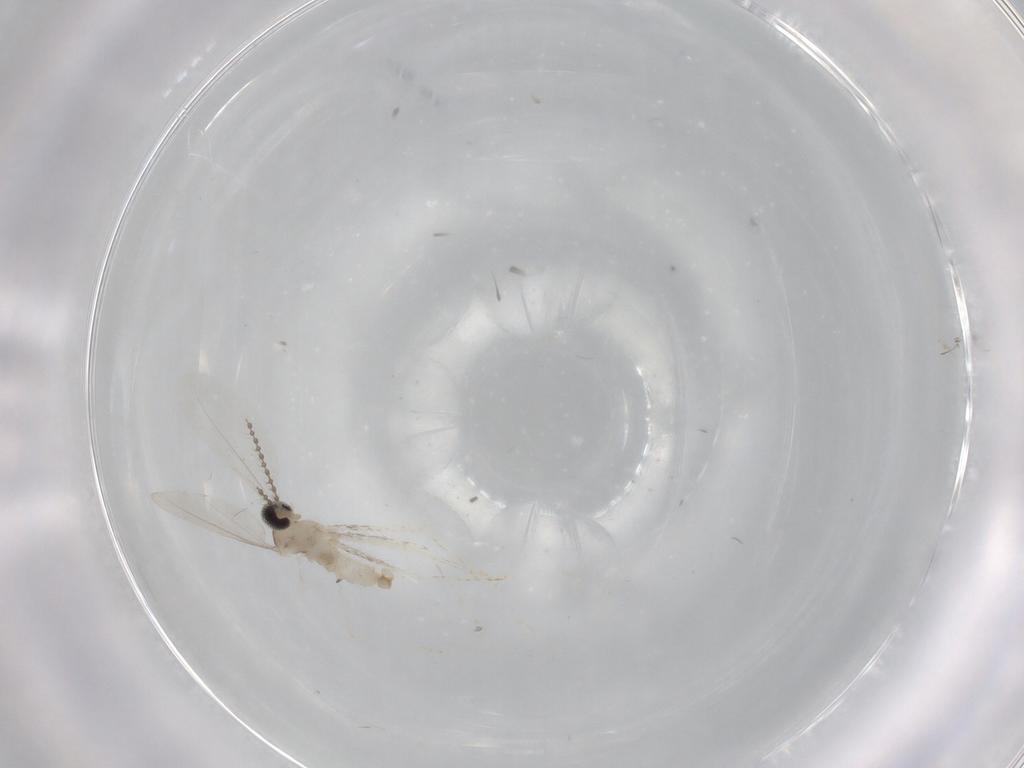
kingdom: Animalia
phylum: Arthropoda
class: Insecta
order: Diptera
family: Cecidomyiidae
